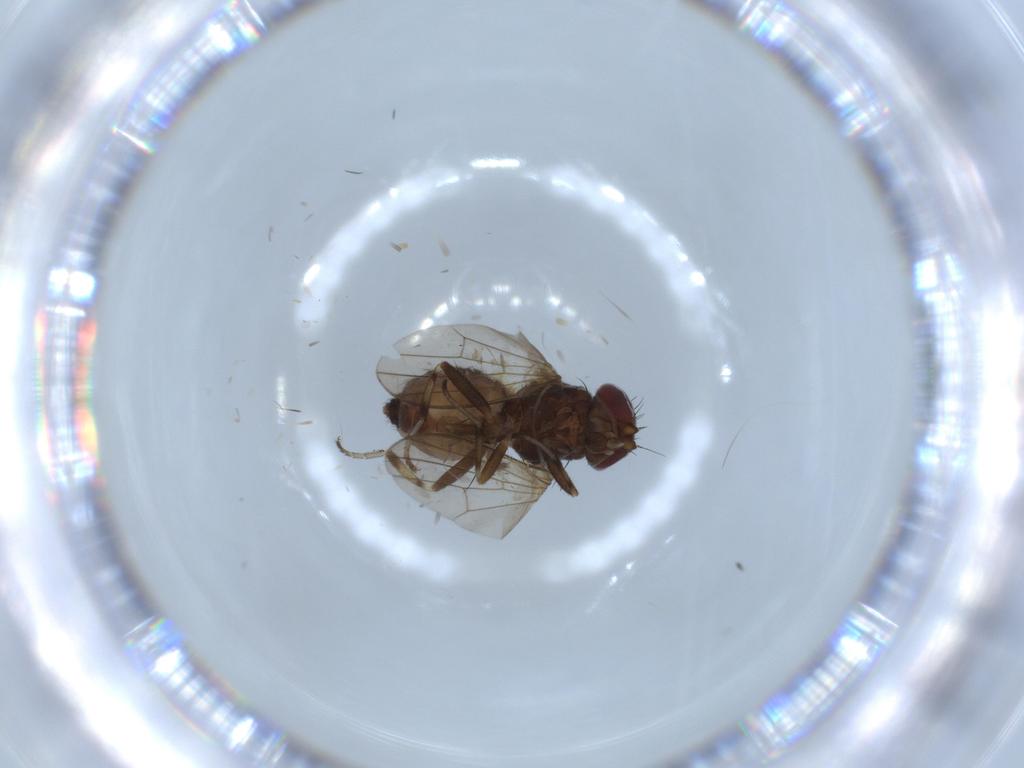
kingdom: Animalia
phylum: Arthropoda
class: Insecta
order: Diptera
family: Heleomyzidae
